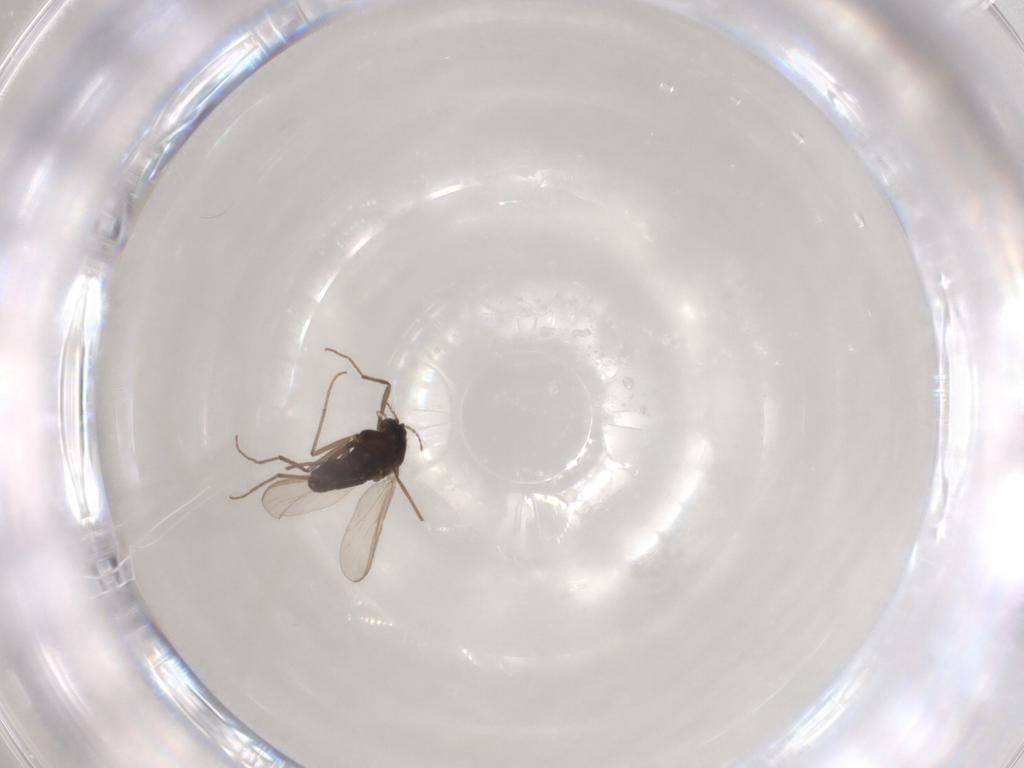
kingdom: Animalia
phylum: Arthropoda
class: Insecta
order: Diptera
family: Chironomidae
